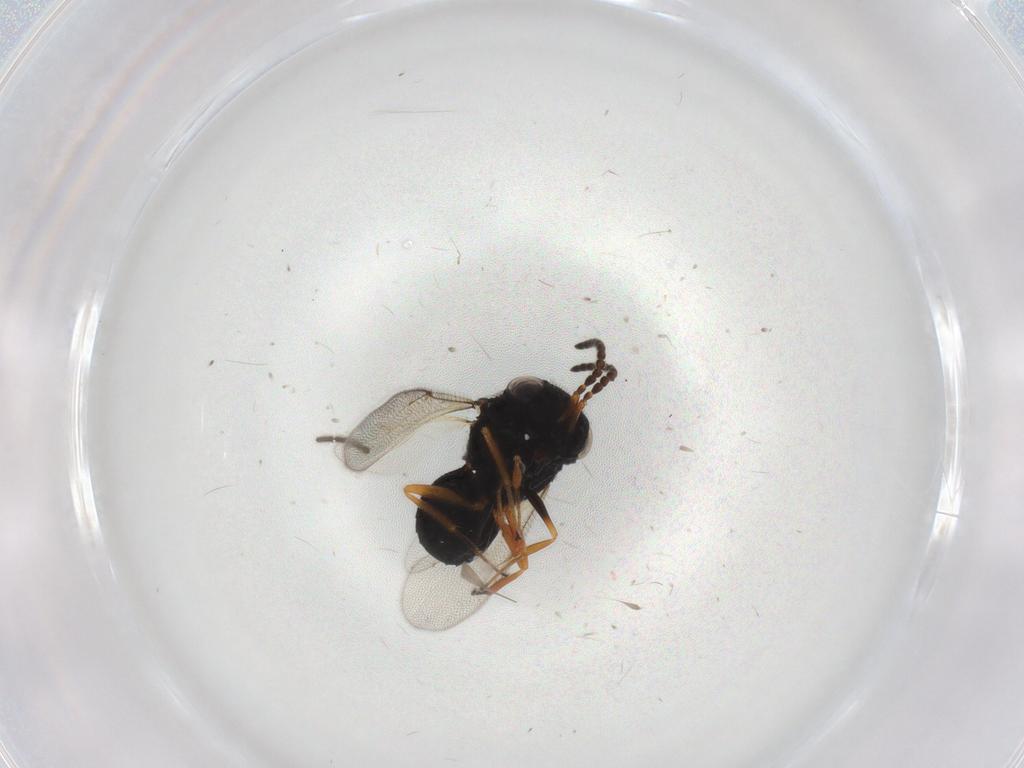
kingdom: Animalia
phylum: Arthropoda
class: Insecta
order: Hymenoptera
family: Scelionidae
